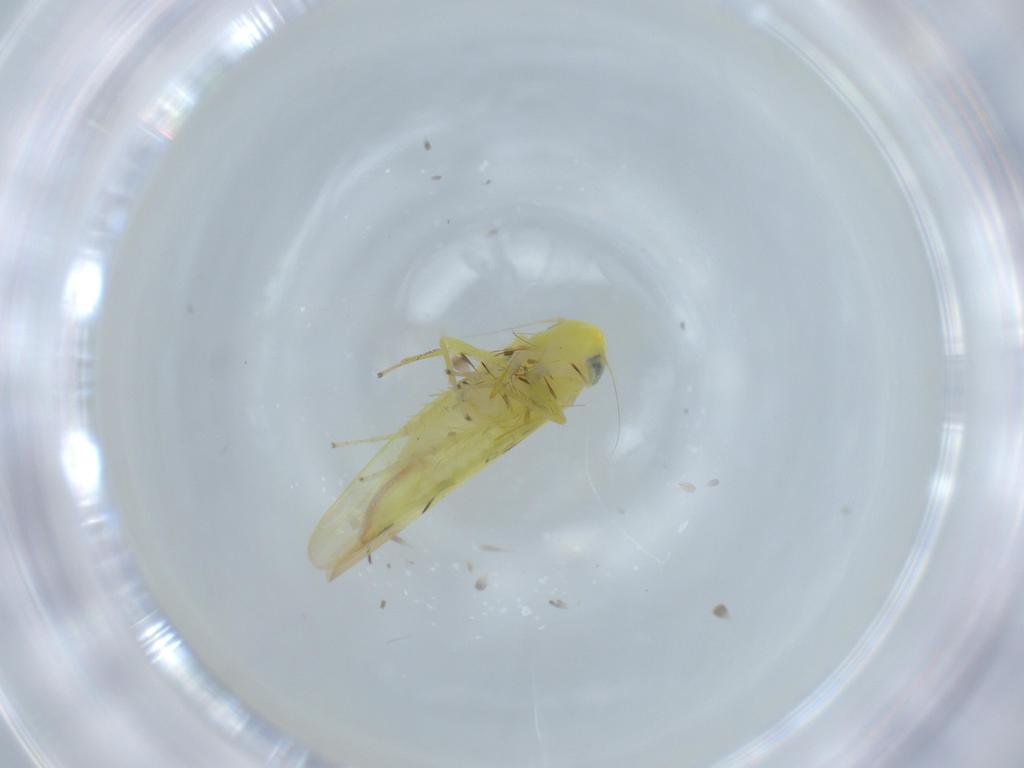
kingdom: Animalia
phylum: Arthropoda
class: Insecta
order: Hemiptera
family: Cicadellidae
